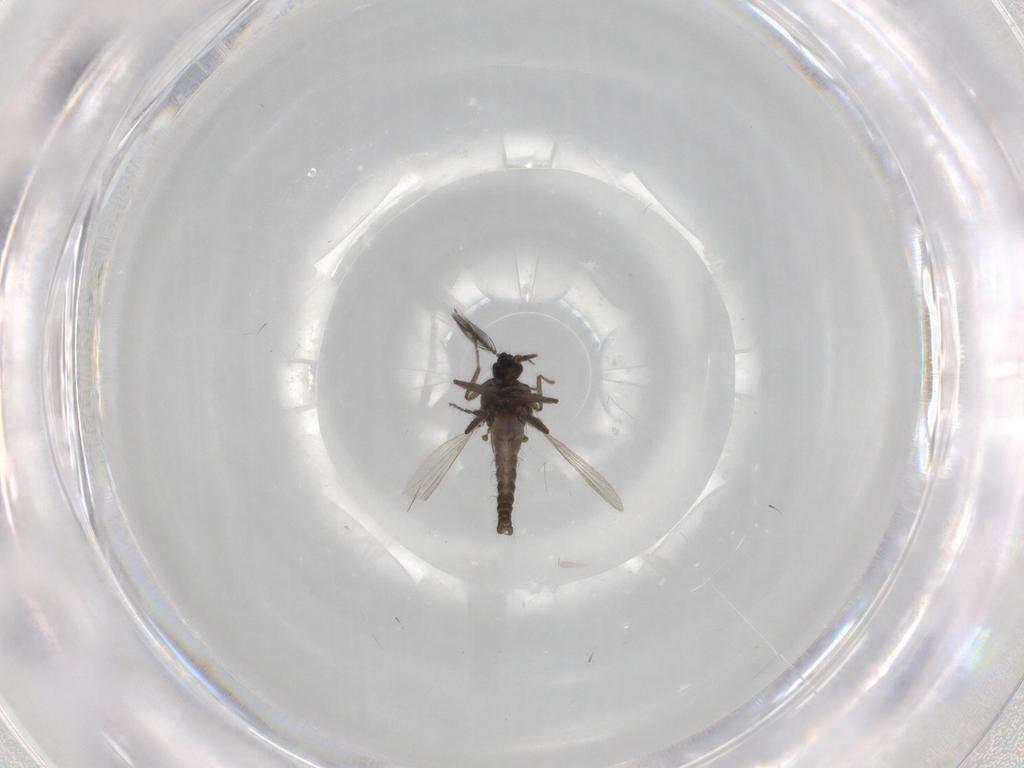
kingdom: Animalia
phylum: Arthropoda
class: Insecta
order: Diptera
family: Ceratopogonidae
